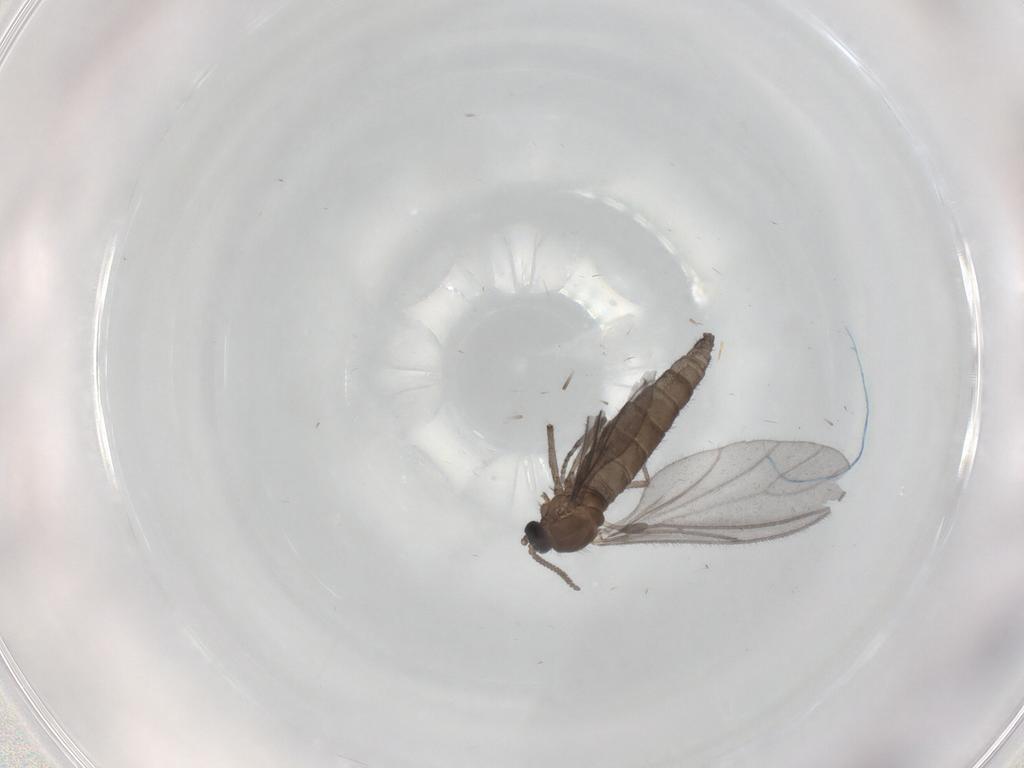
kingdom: Animalia
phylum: Arthropoda
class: Insecta
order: Diptera
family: Sciaridae
